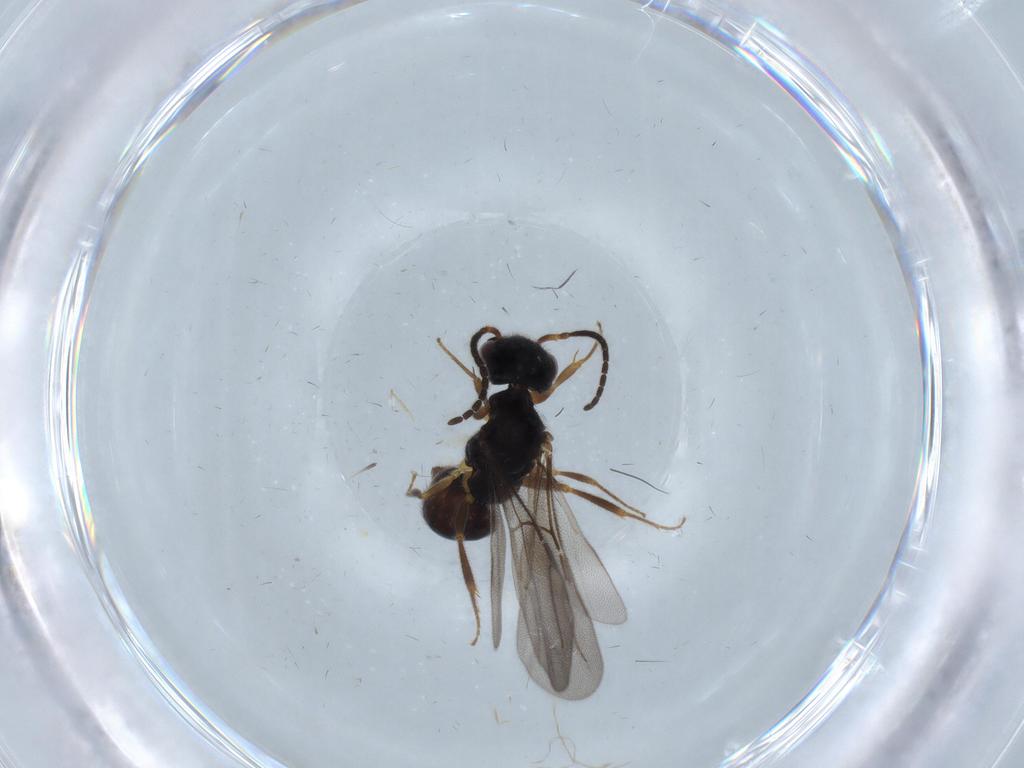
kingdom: Animalia
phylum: Arthropoda
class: Insecta
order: Hymenoptera
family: Bethylidae
